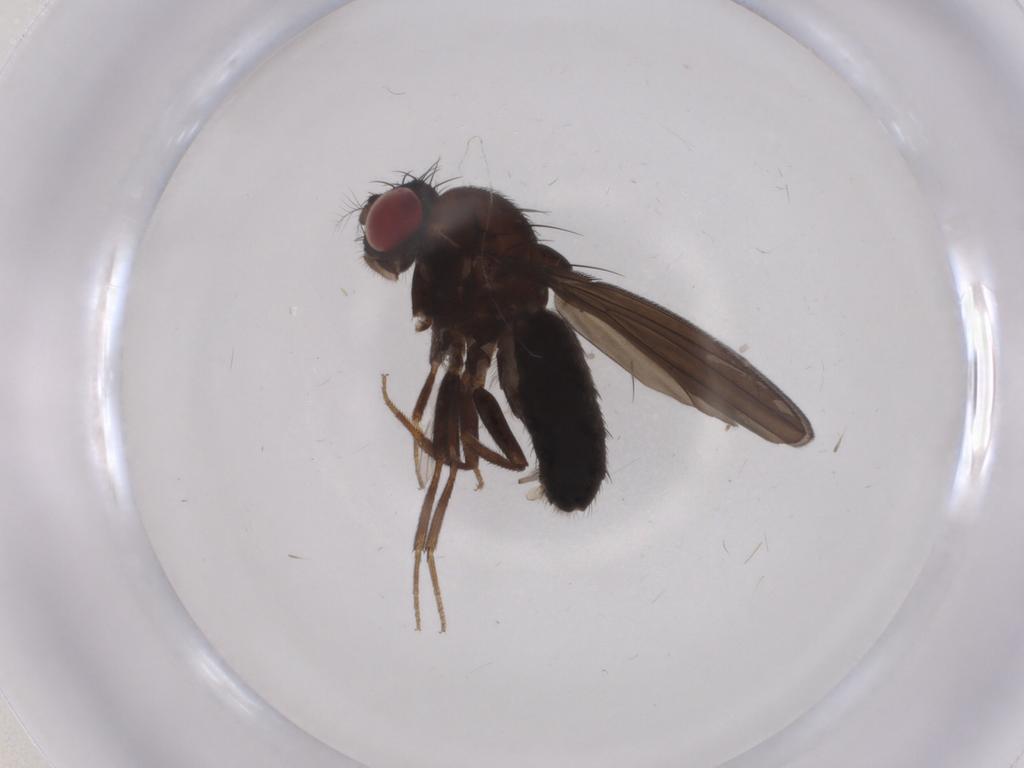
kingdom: Animalia
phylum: Arthropoda
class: Insecta
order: Diptera
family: Drosophilidae
